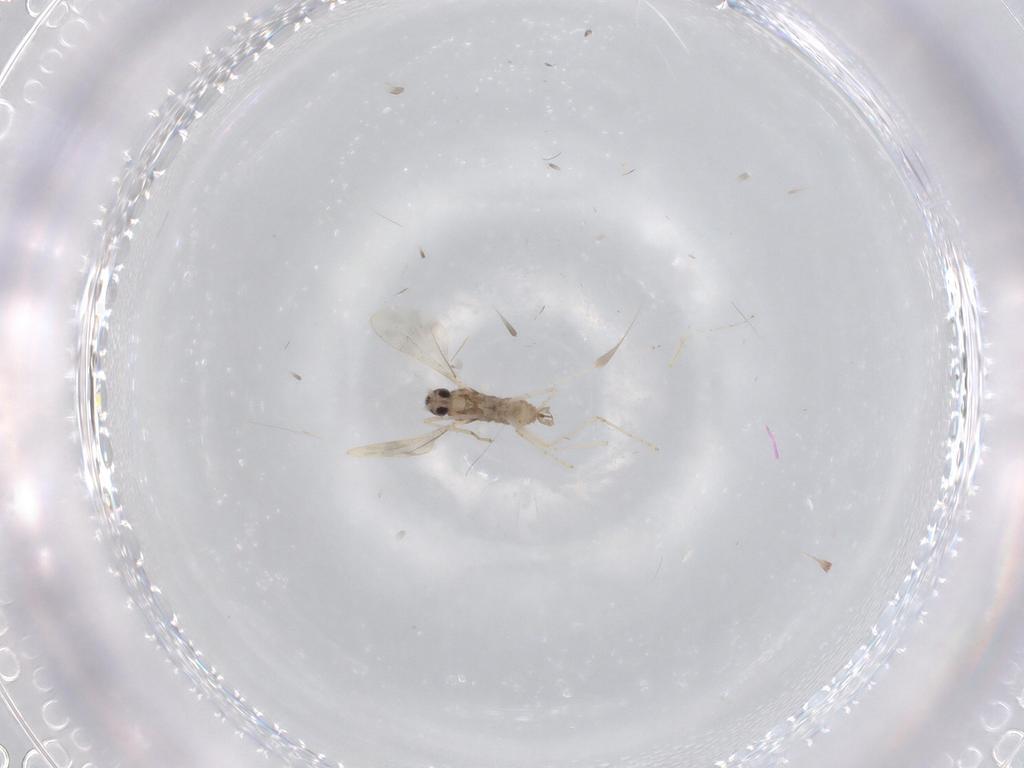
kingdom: Animalia
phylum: Arthropoda
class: Insecta
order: Diptera
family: Cecidomyiidae
